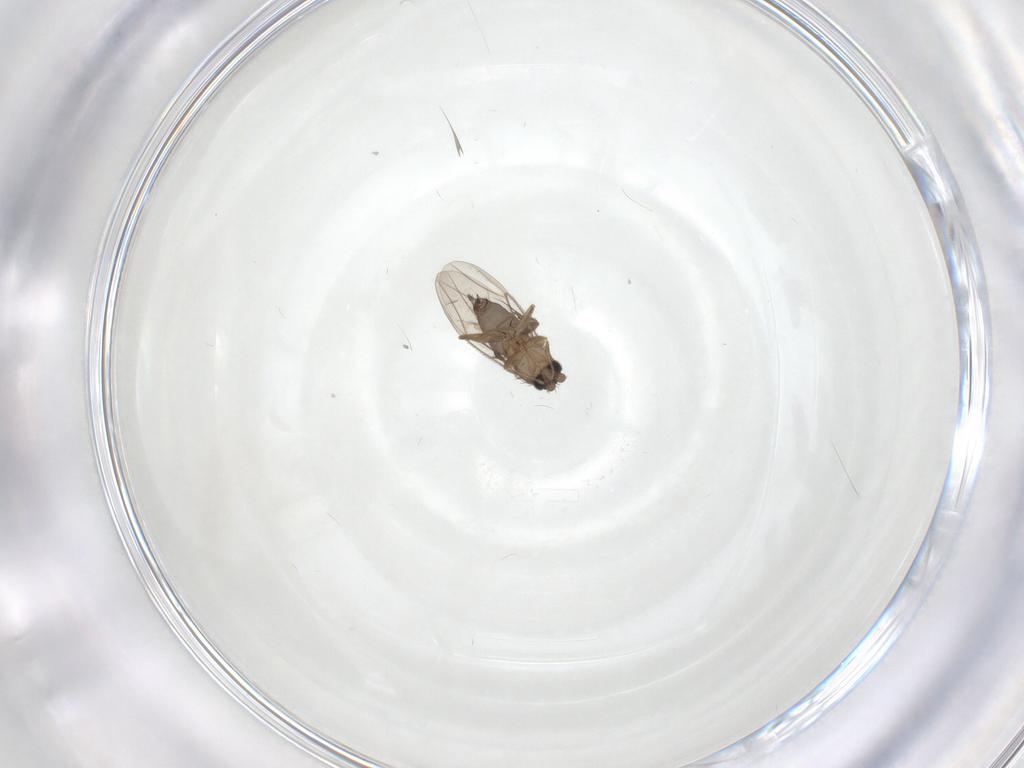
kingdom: Animalia
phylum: Arthropoda
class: Insecta
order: Diptera
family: Phoridae
